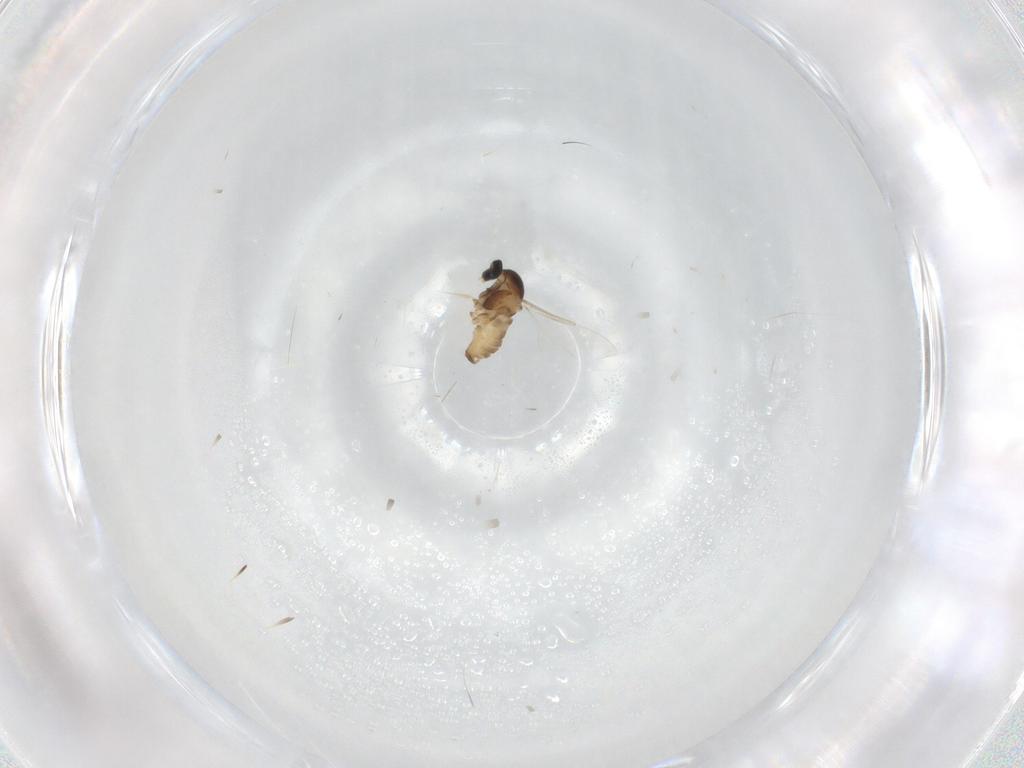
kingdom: Animalia
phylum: Arthropoda
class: Insecta
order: Diptera
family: Cecidomyiidae
